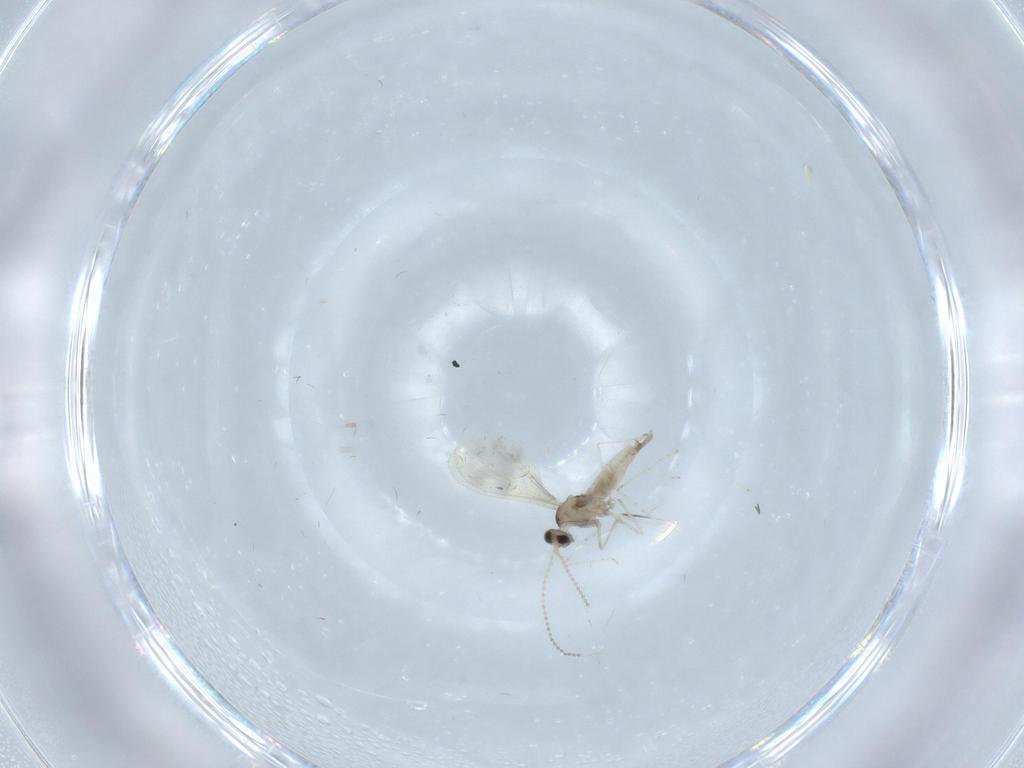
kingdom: Animalia
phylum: Arthropoda
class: Insecta
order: Diptera
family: Cecidomyiidae
